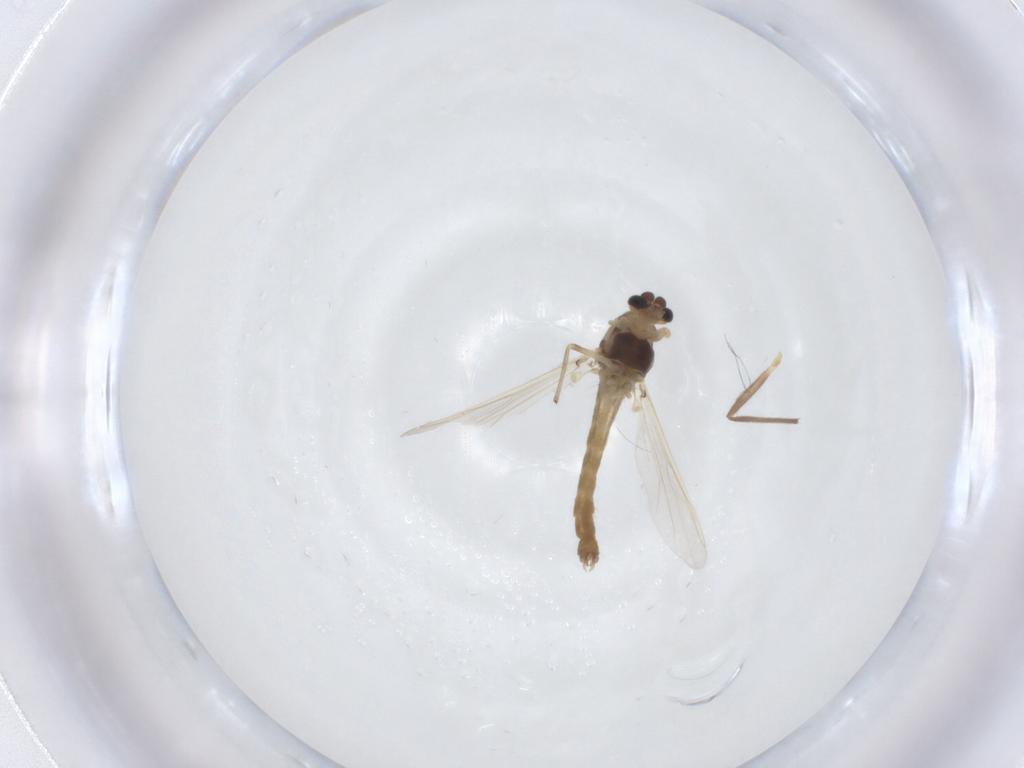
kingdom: Animalia
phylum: Arthropoda
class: Insecta
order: Diptera
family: Chironomidae
